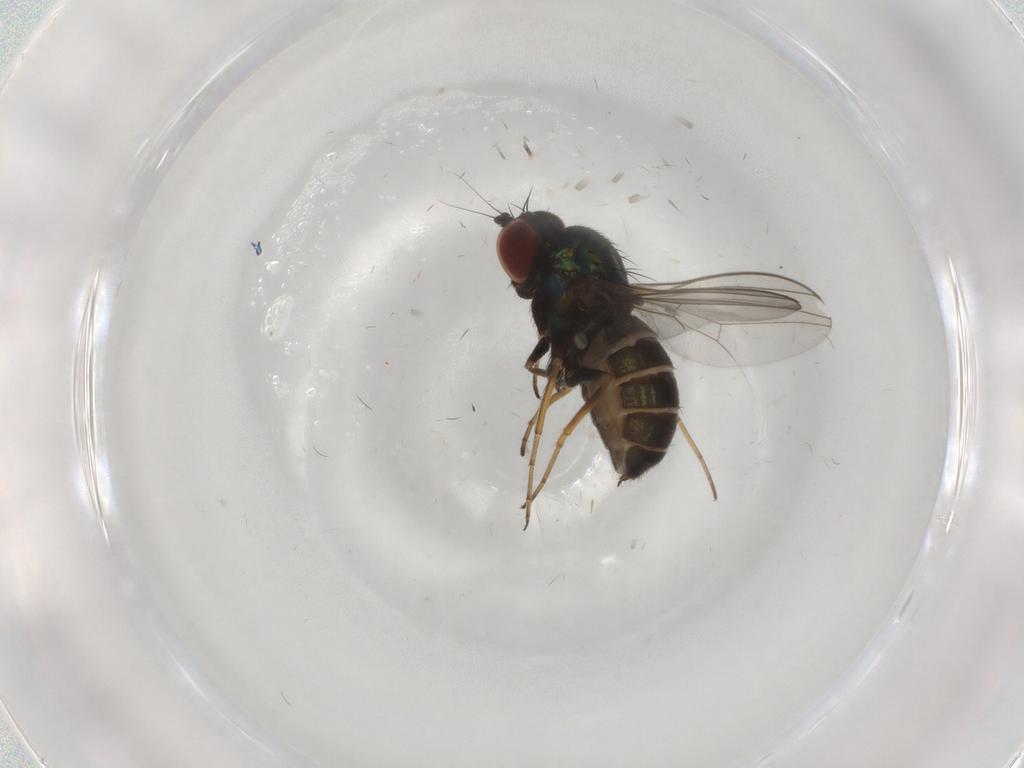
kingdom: Animalia
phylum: Arthropoda
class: Insecta
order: Diptera
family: Dolichopodidae
